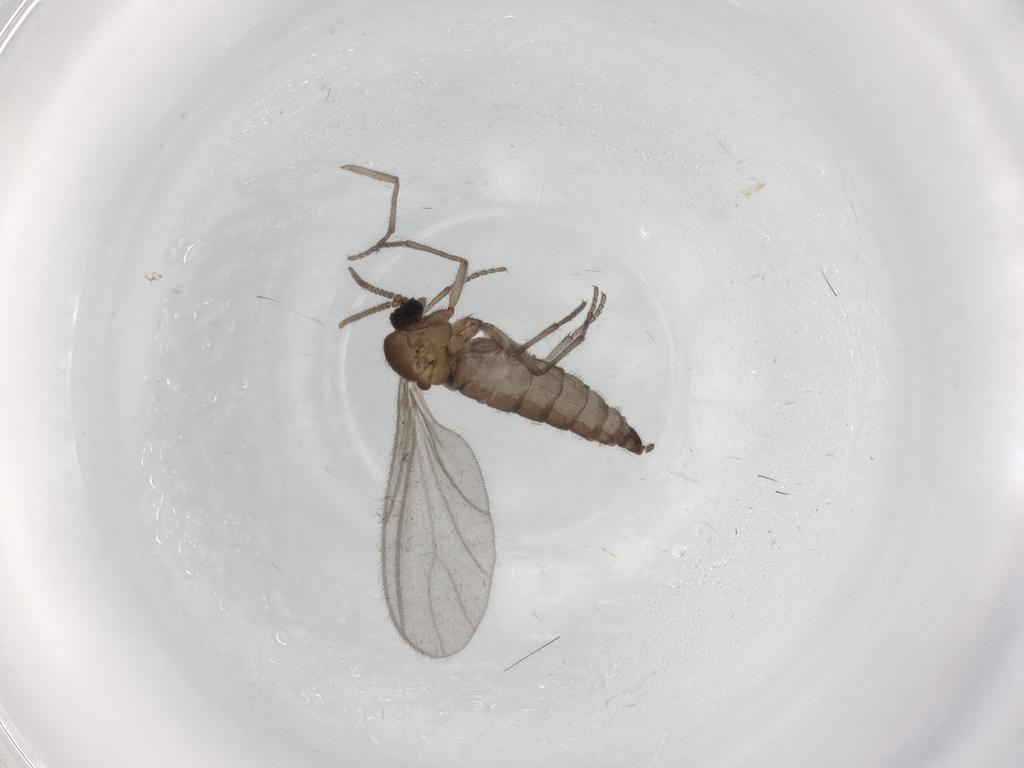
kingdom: Animalia
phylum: Arthropoda
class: Insecta
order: Diptera
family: Sciaridae
